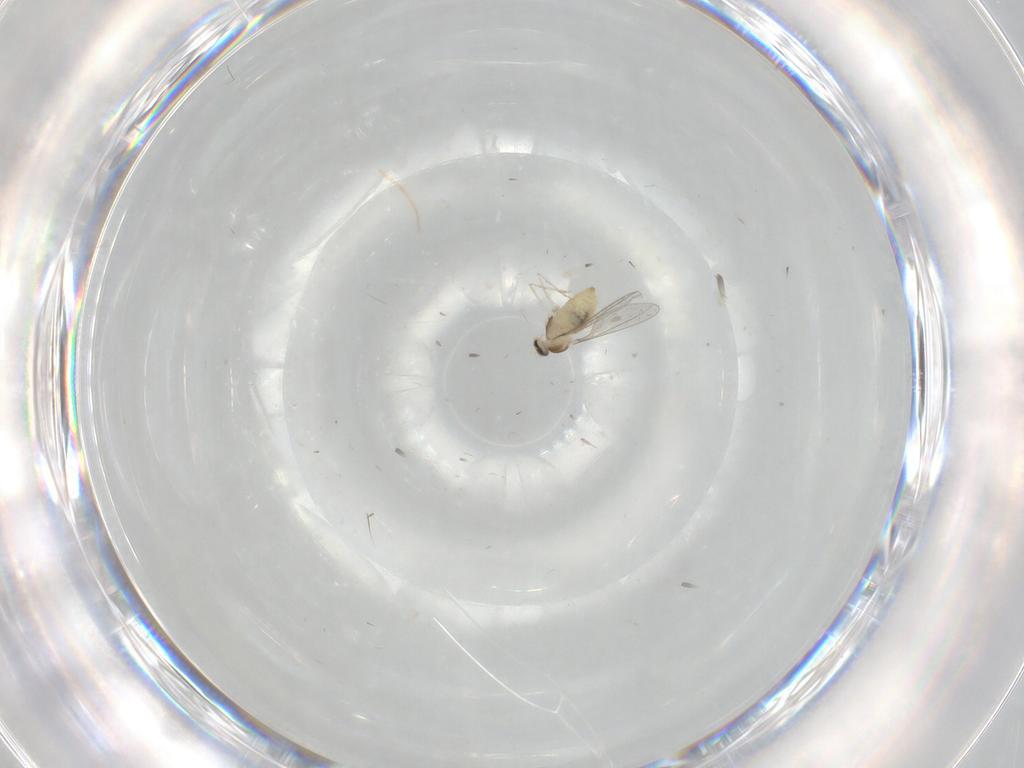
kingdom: Animalia
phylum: Arthropoda
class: Insecta
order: Diptera
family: Cecidomyiidae
